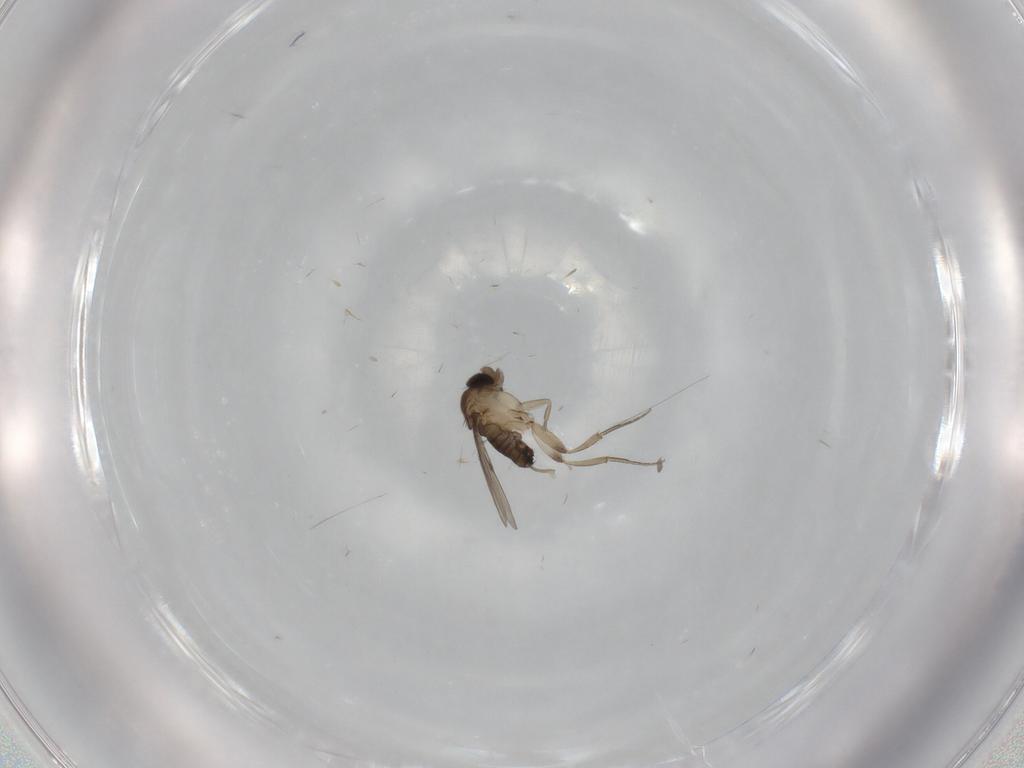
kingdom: Animalia
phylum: Arthropoda
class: Insecta
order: Diptera
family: Phoridae
